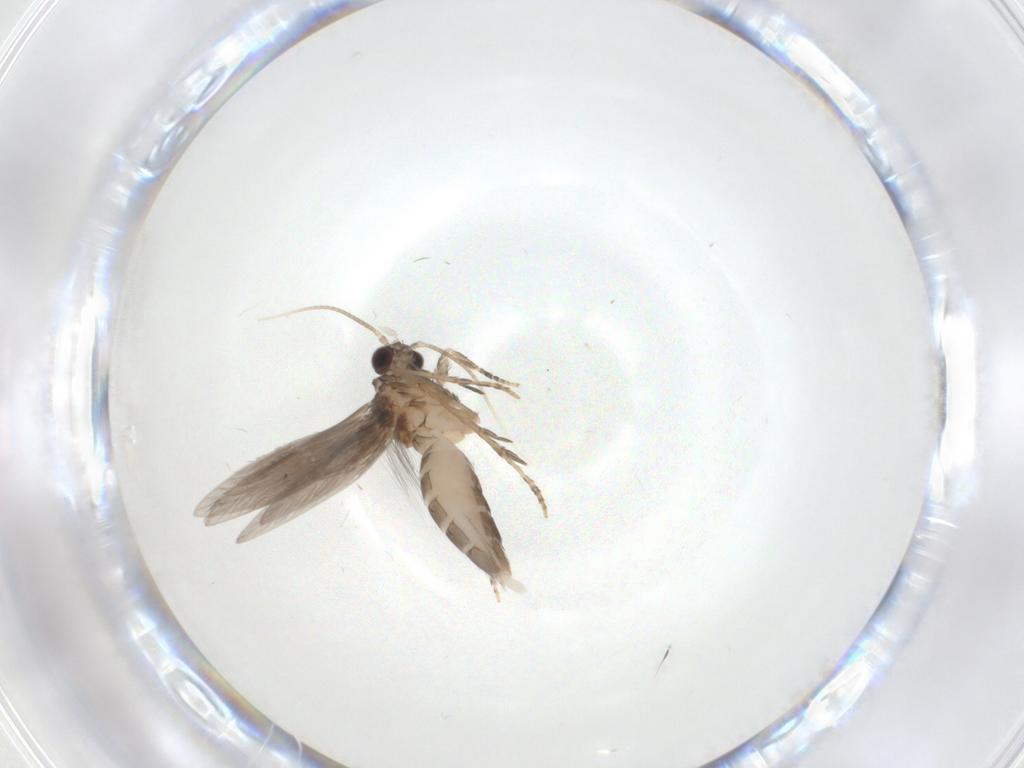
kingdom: Animalia
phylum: Arthropoda
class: Insecta
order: Trichoptera
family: Hydroptilidae
